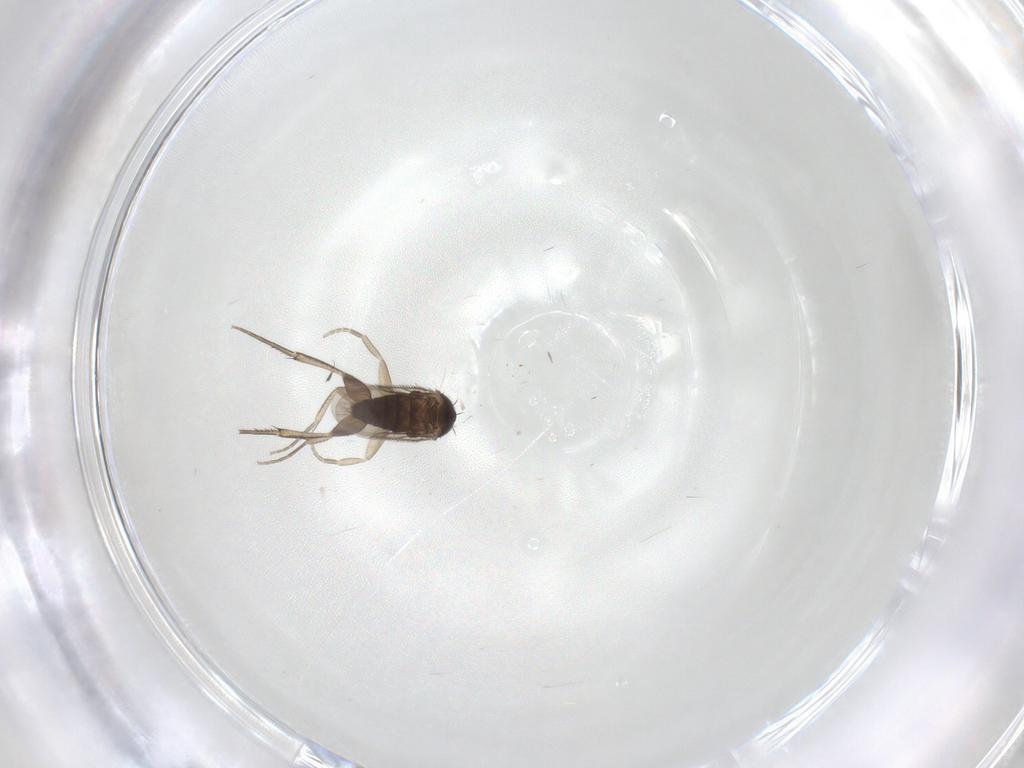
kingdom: Animalia
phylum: Arthropoda
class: Insecta
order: Diptera
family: Phoridae
